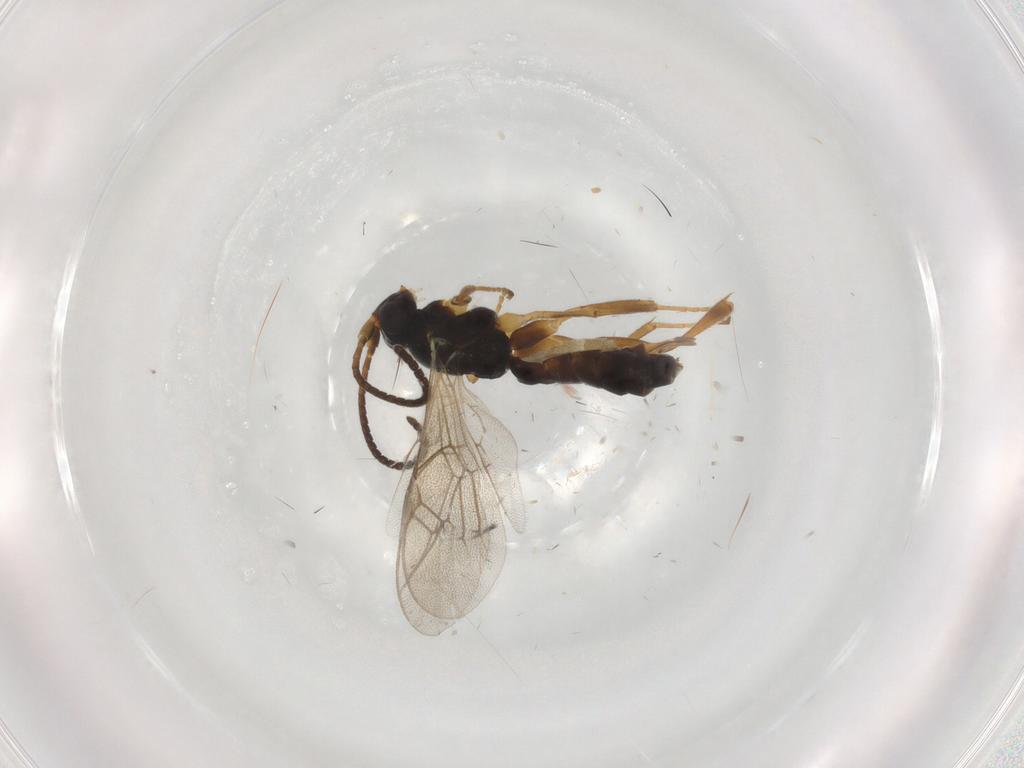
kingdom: Animalia
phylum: Arthropoda
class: Insecta
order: Hymenoptera
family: Ichneumonidae
